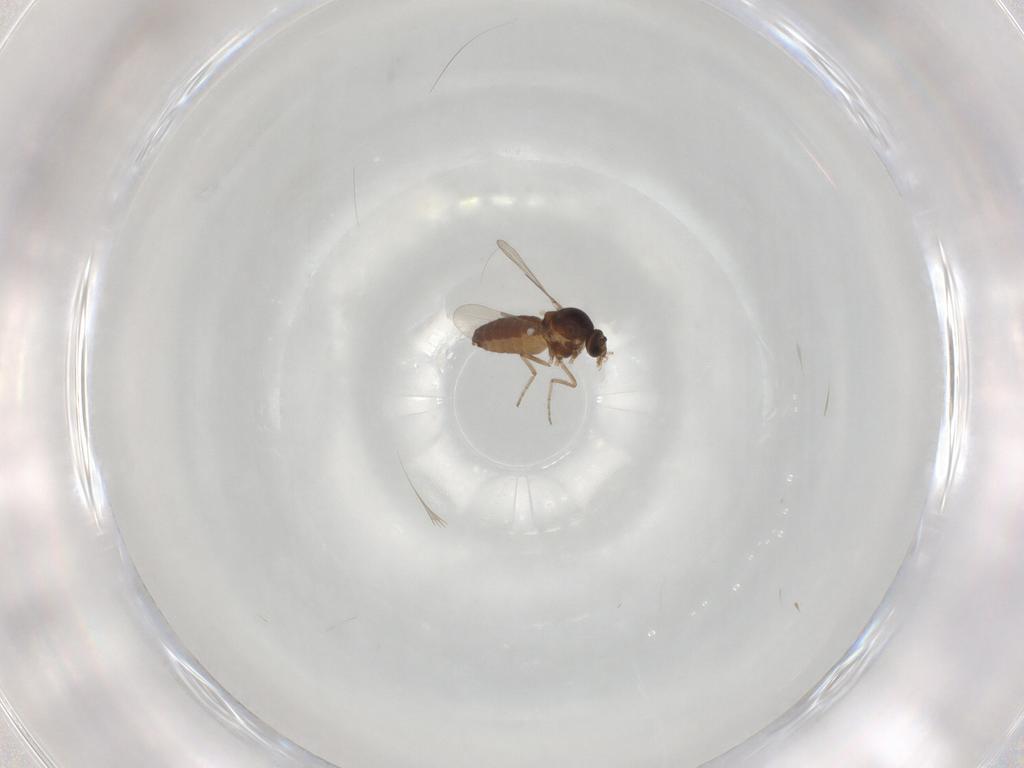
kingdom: Animalia
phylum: Arthropoda
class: Insecta
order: Diptera
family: Ceratopogonidae
